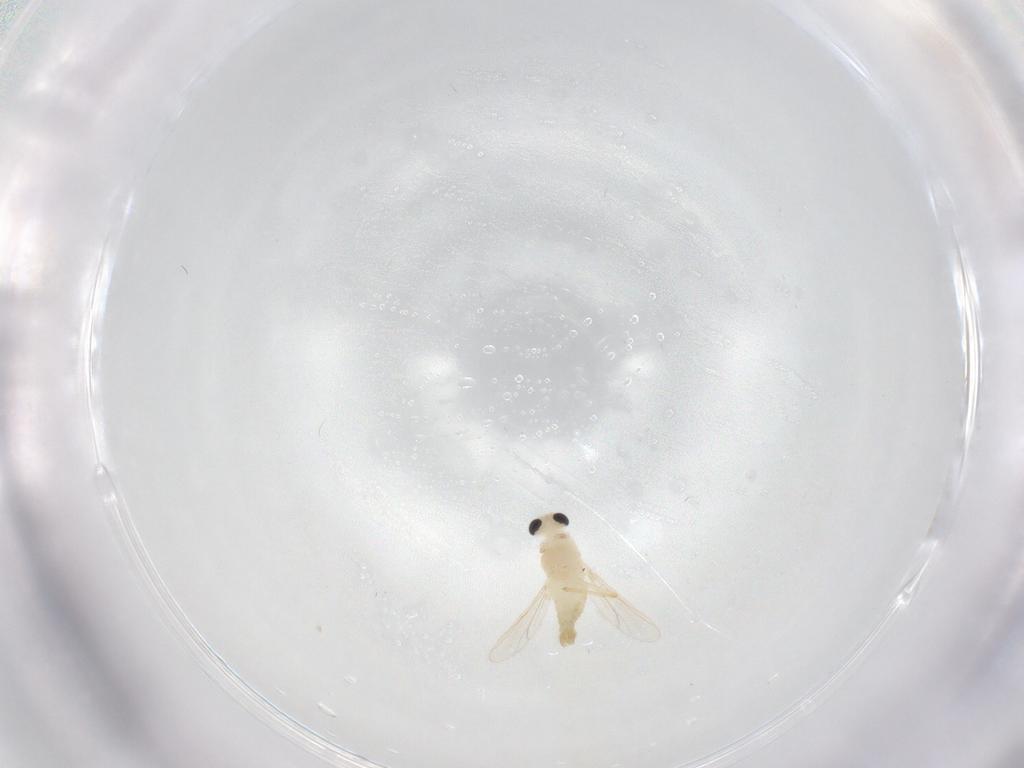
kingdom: Animalia
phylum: Arthropoda
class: Insecta
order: Diptera
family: Chironomidae
